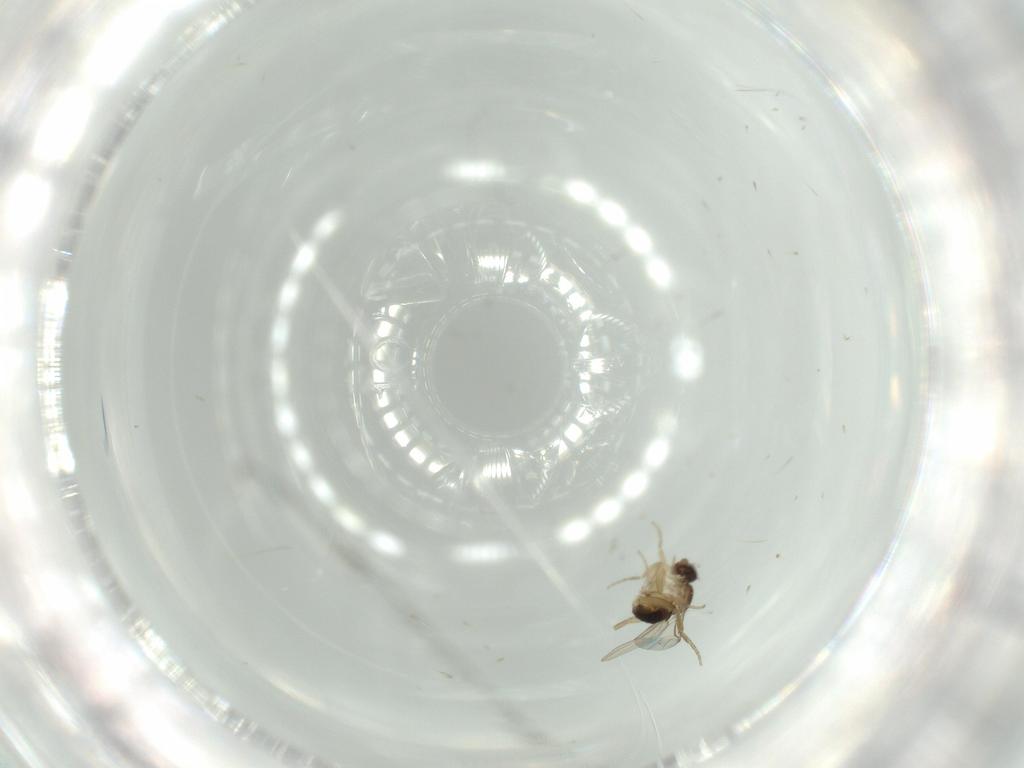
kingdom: Animalia
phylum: Arthropoda
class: Insecta
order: Diptera
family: Phoridae
